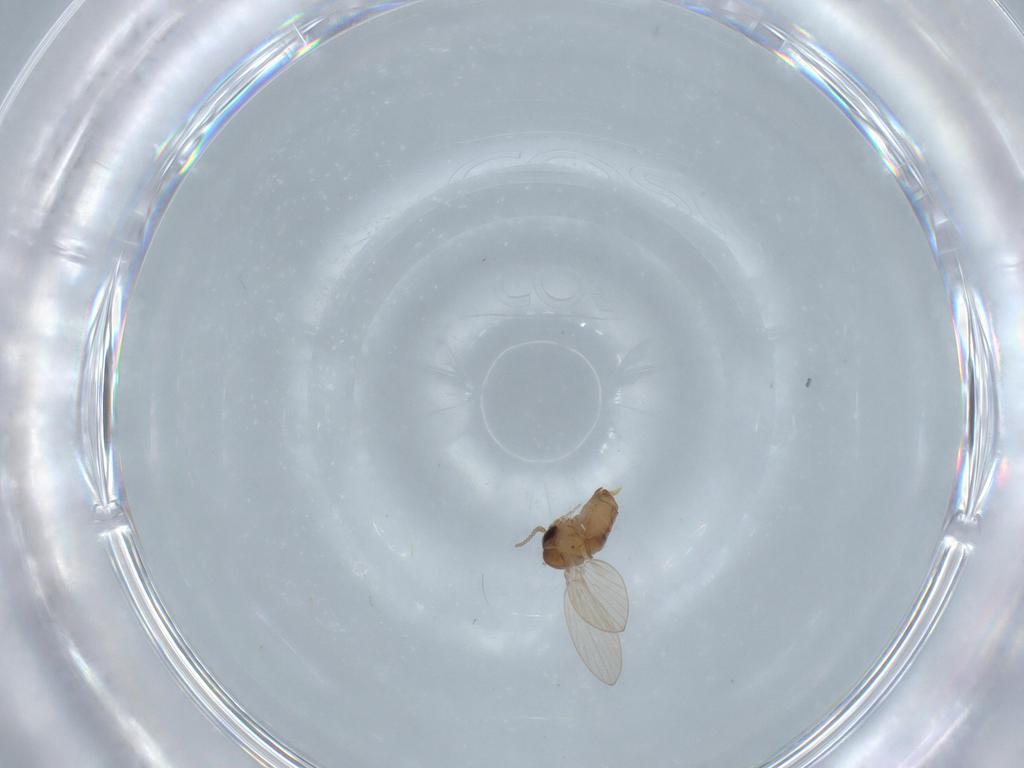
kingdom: Animalia
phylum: Arthropoda
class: Insecta
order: Diptera
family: Psychodidae
